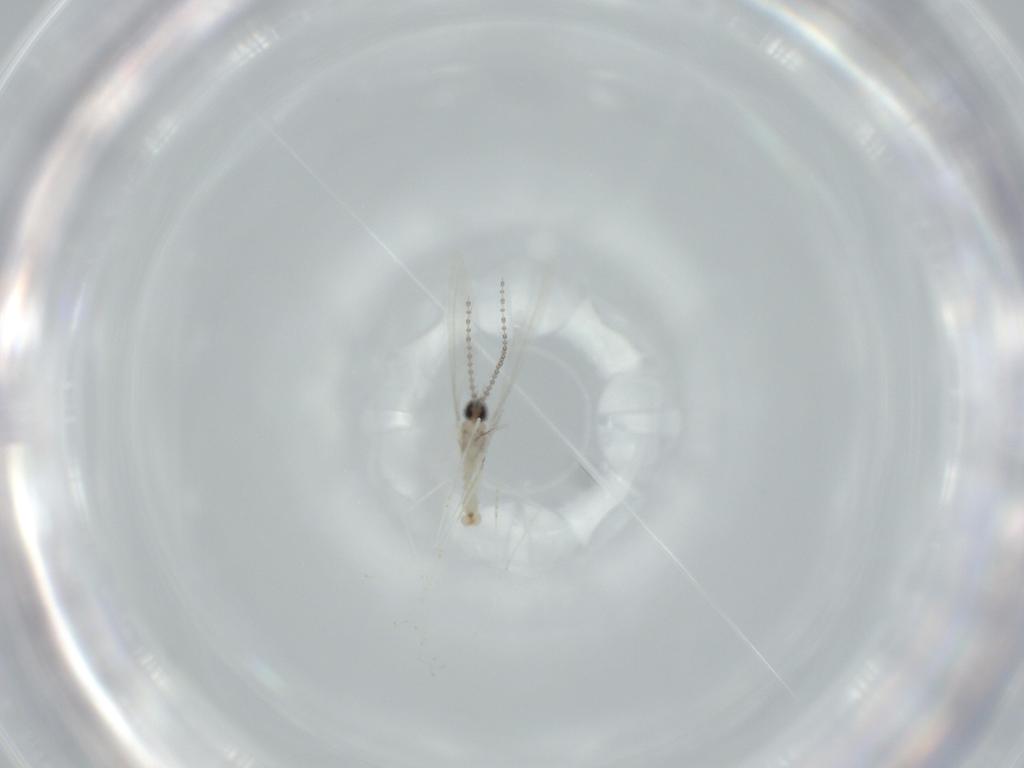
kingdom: Animalia
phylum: Arthropoda
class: Insecta
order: Diptera
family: Cecidomyiidae
